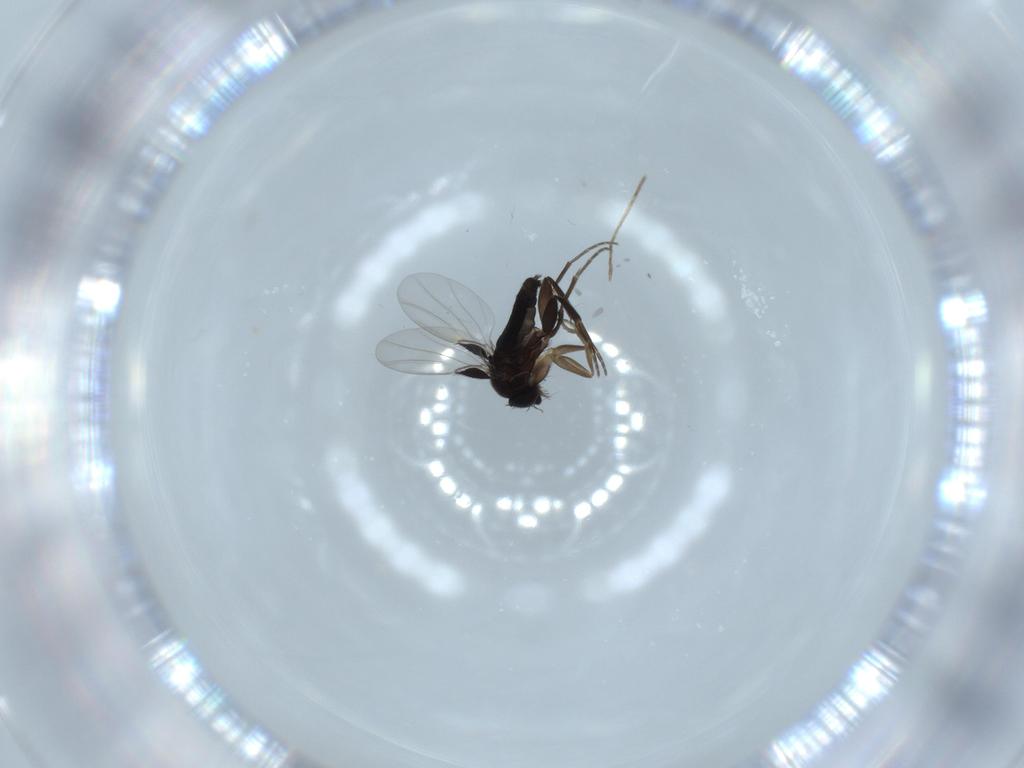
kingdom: Animalia
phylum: Arthropoda
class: Insecta
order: Diptera
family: Phoridae
